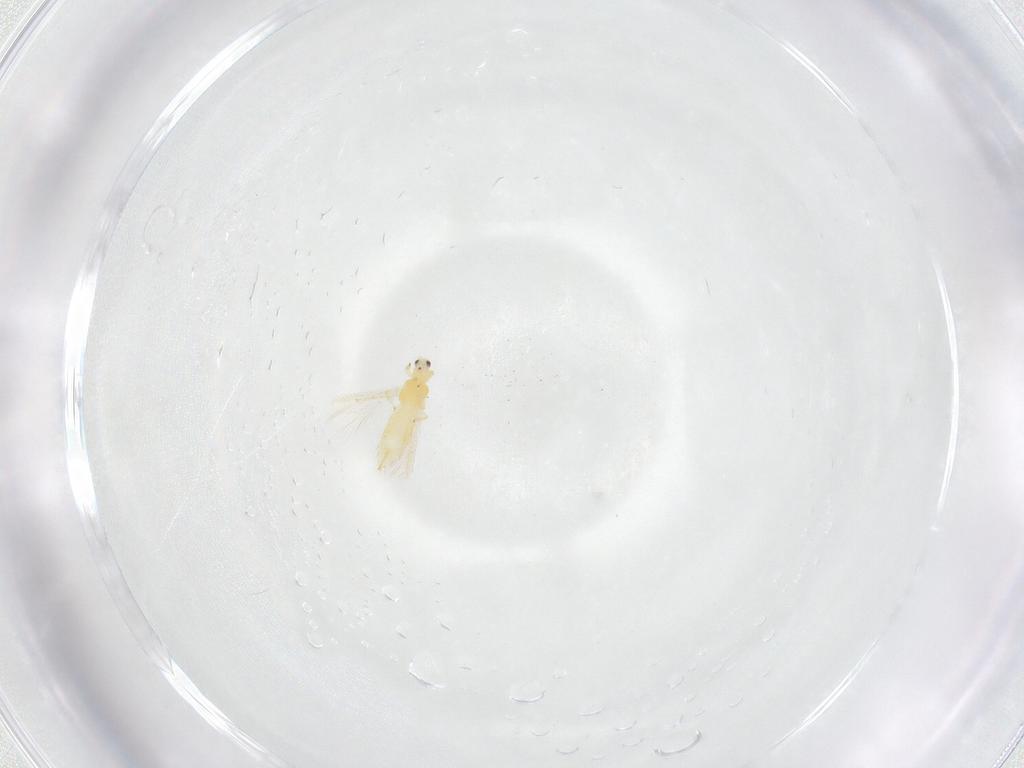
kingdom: Animalia
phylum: Arthropoda
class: Insecta
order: Thysanoptera
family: Thripidae
